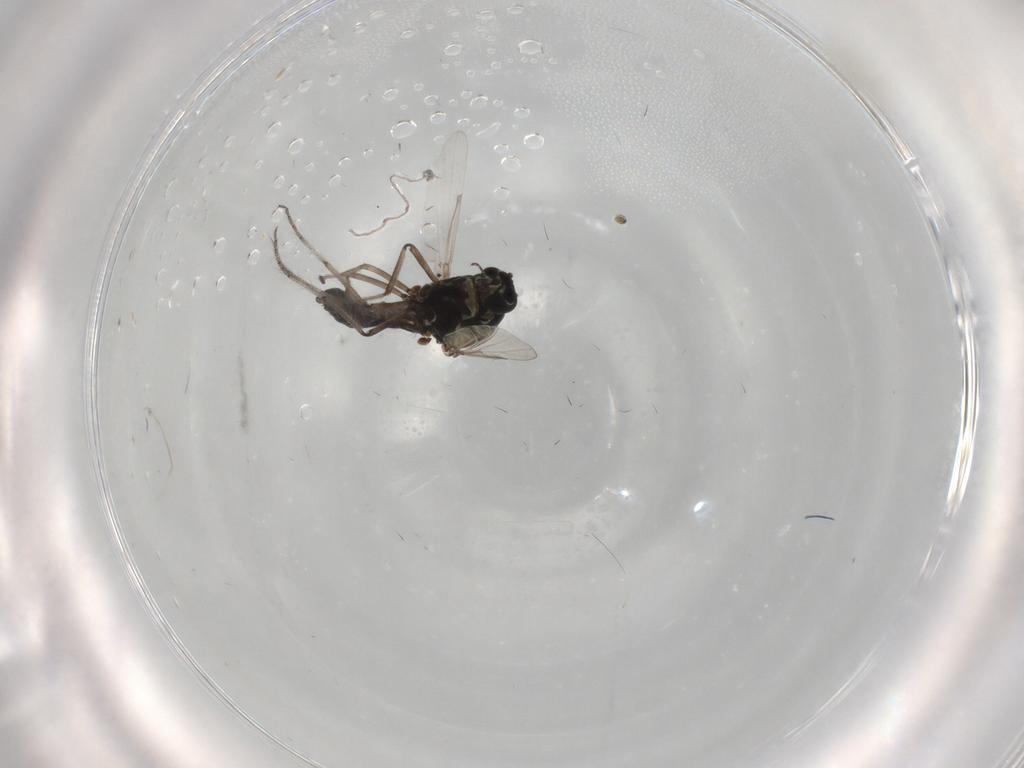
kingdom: Animalia
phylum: Arthropoda
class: Insecta
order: Diptera
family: Ceratopogonidae
